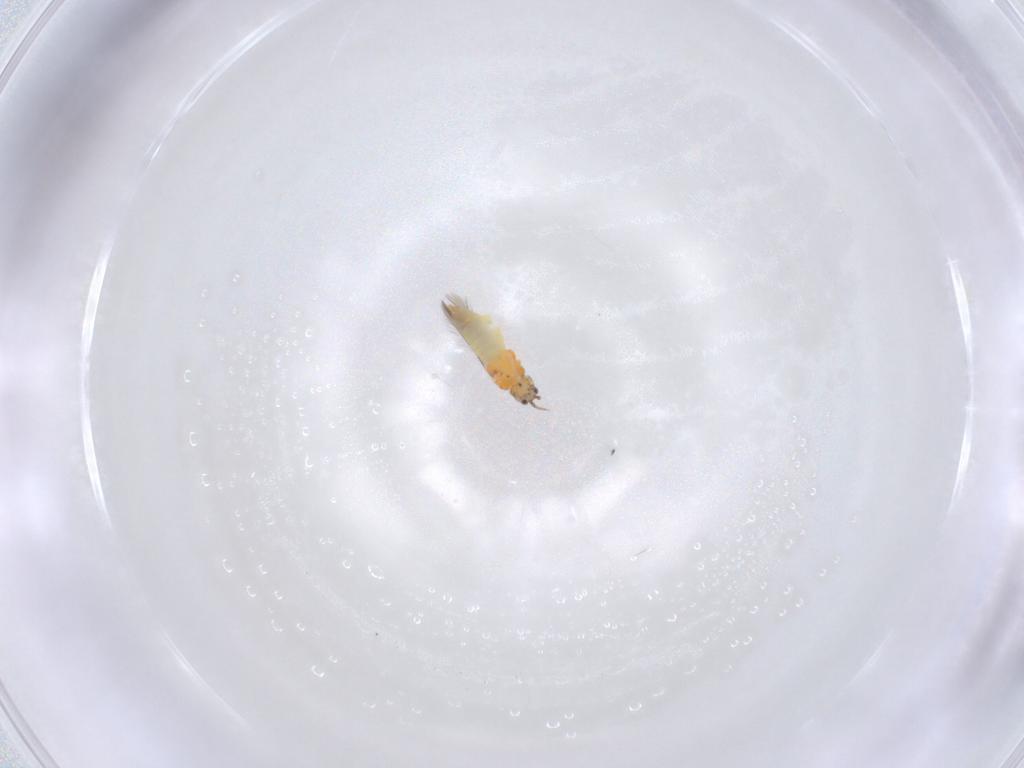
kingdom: Animalia
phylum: Arthropoda
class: Insecta
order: Thysanoptera
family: Thripidae
